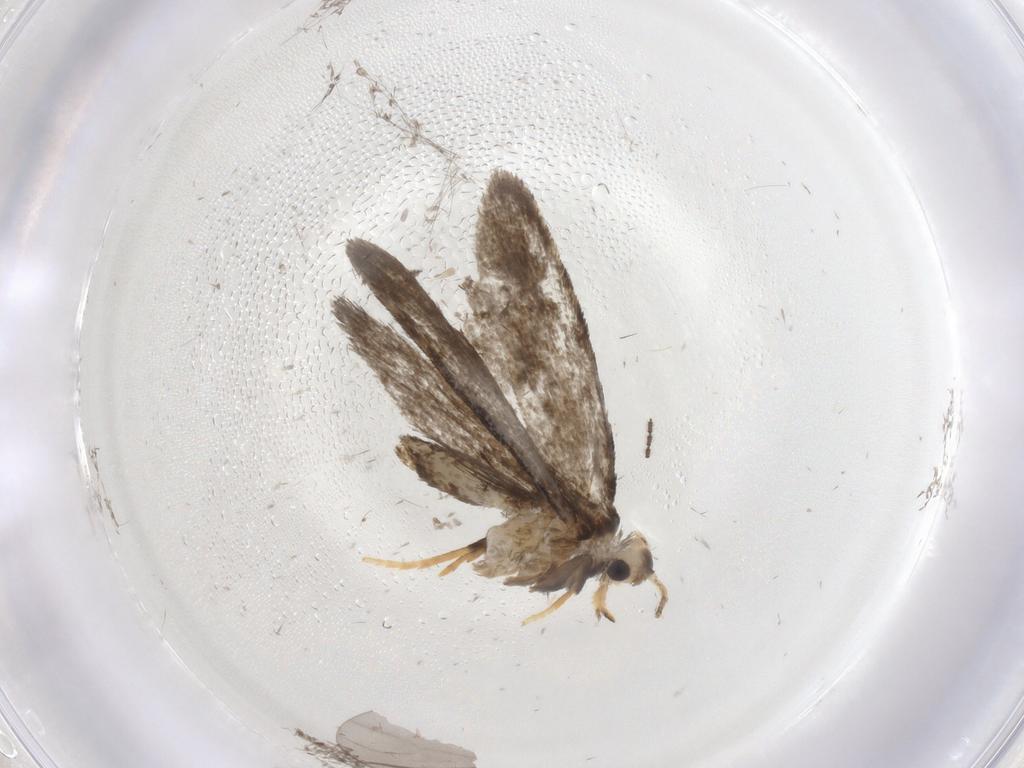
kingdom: Animalia
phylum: Arthropoda
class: Insecta
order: Lepidoptera
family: Psychidae
